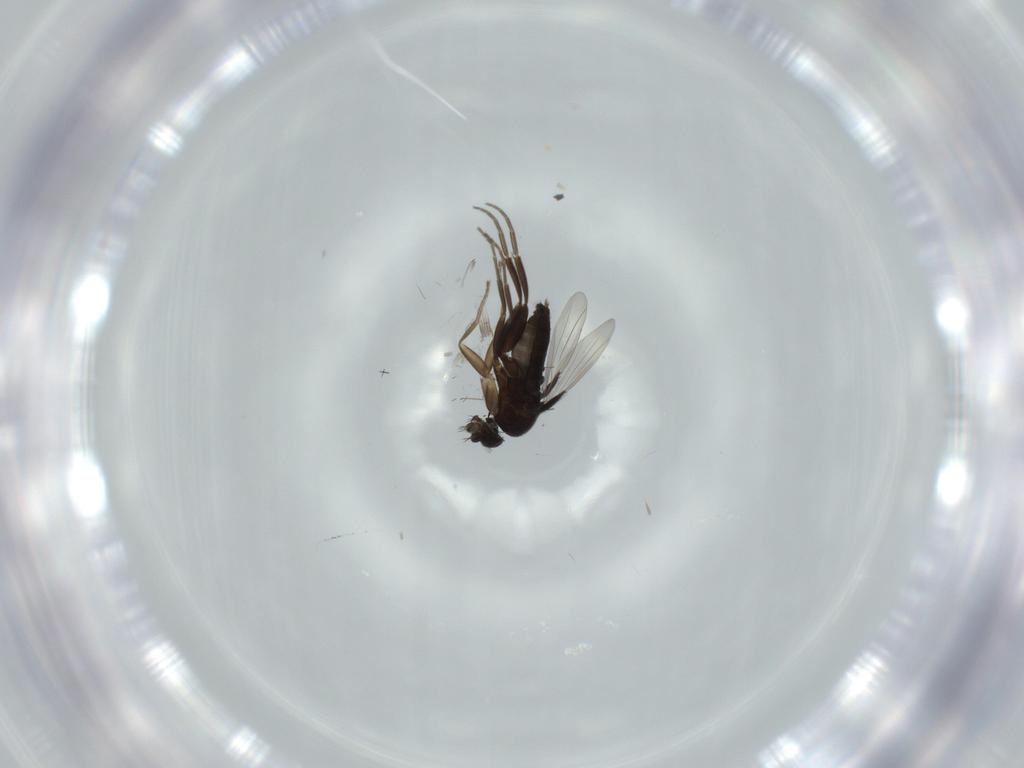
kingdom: Animalia
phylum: Arthropoda
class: Insecta
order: Diptera
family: Phoridae
